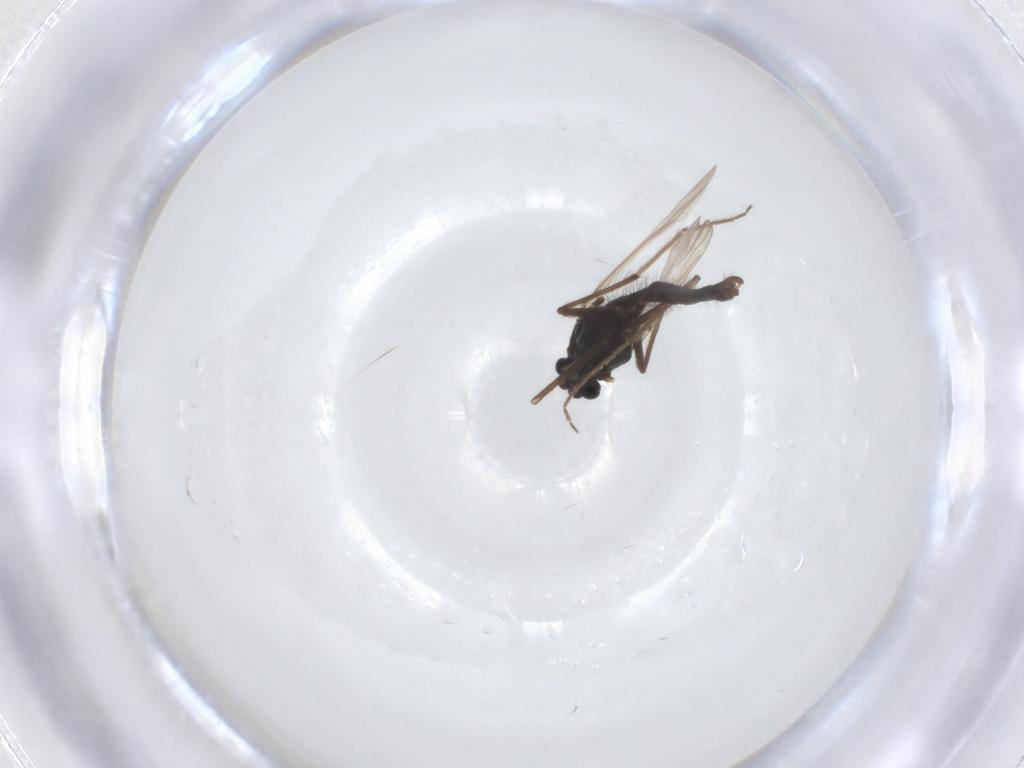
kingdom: Animalia
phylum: Arthropoda
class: Insecta
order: Diptera
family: Chironomidae
